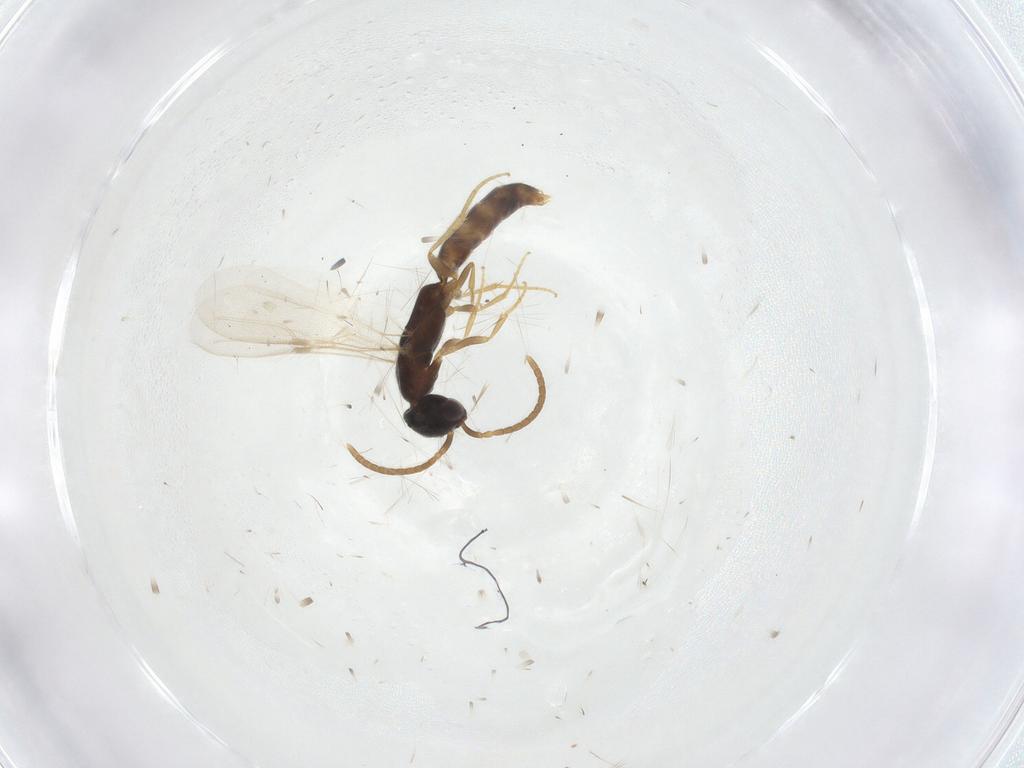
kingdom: Animalia
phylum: Arthropoda
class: Insecta
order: Hymenoptera
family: Bethylidae
